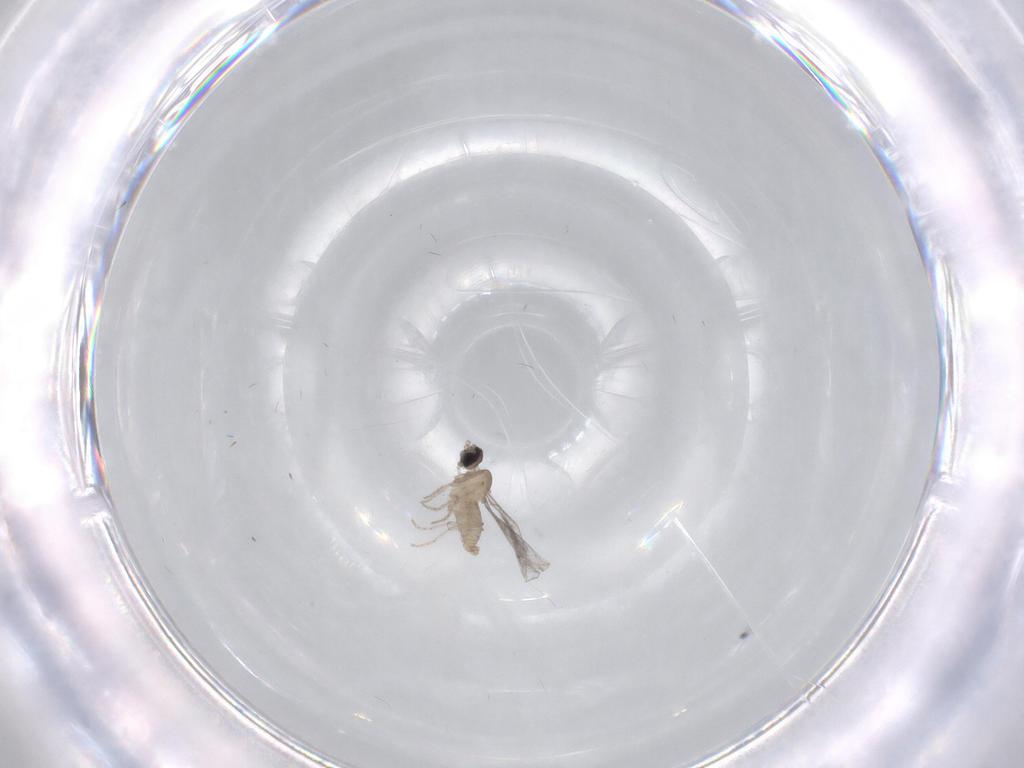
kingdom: Animalia
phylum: Arthropoda
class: Insecta
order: Diptera
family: Cecidomyiidae
